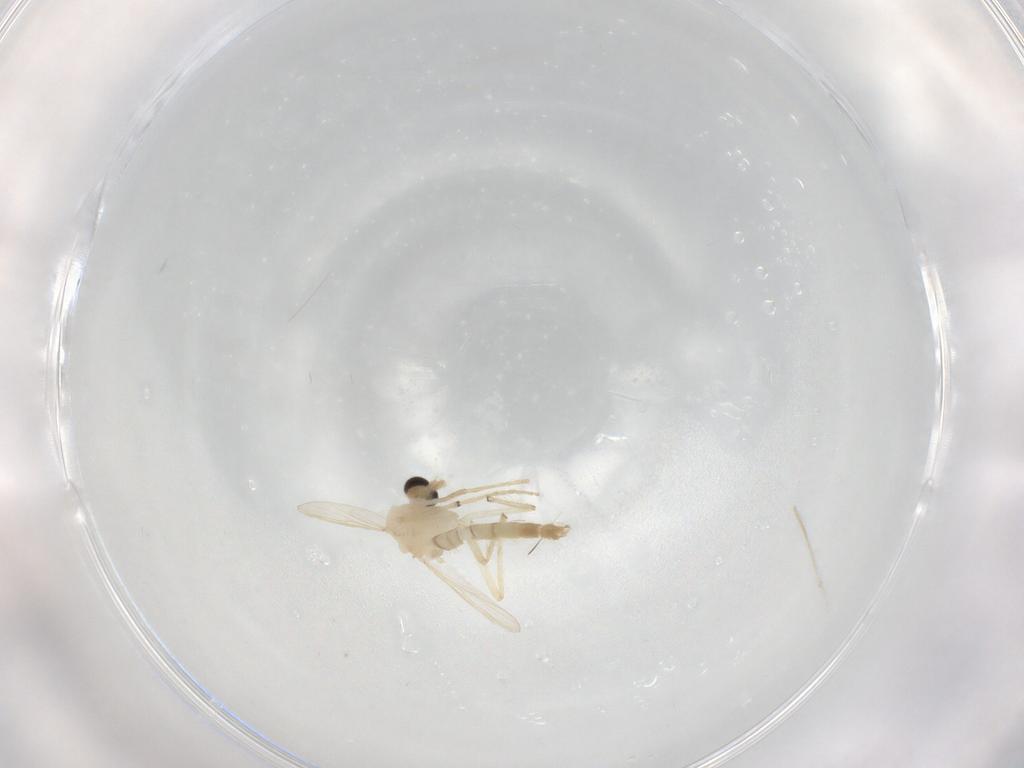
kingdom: Animalia
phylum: Arthropoda
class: Insecta
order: Diptera
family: Chironomidae
